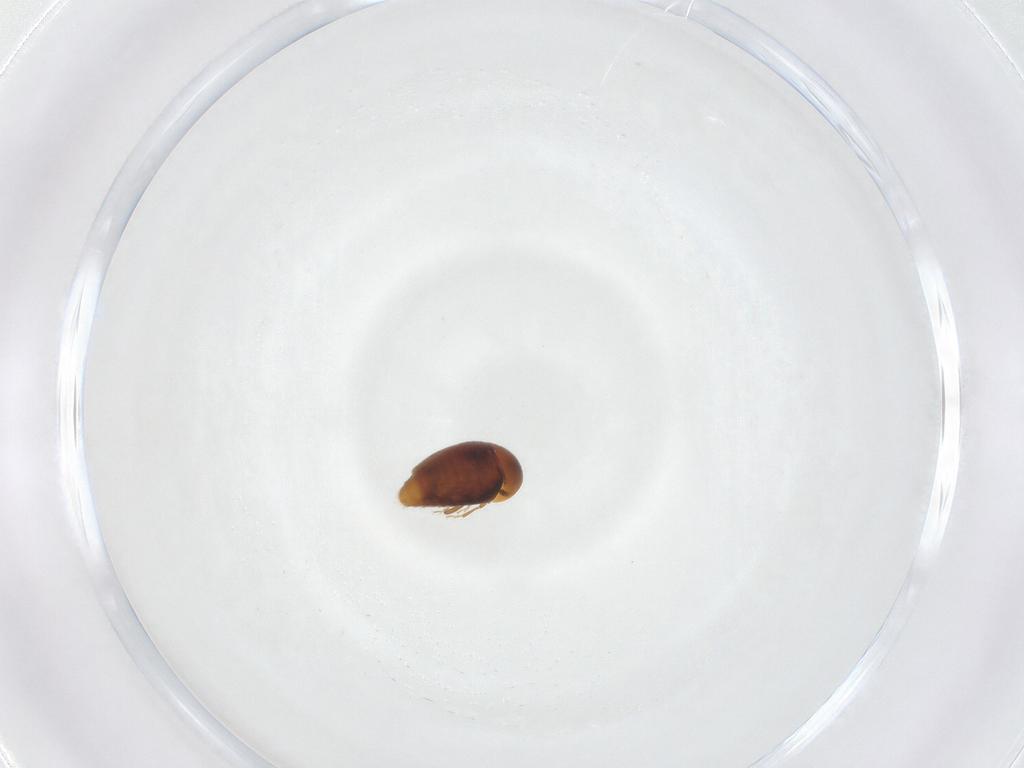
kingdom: Animalia
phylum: Arthropoda
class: Insecta
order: Coleoptera
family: Corylophidae
